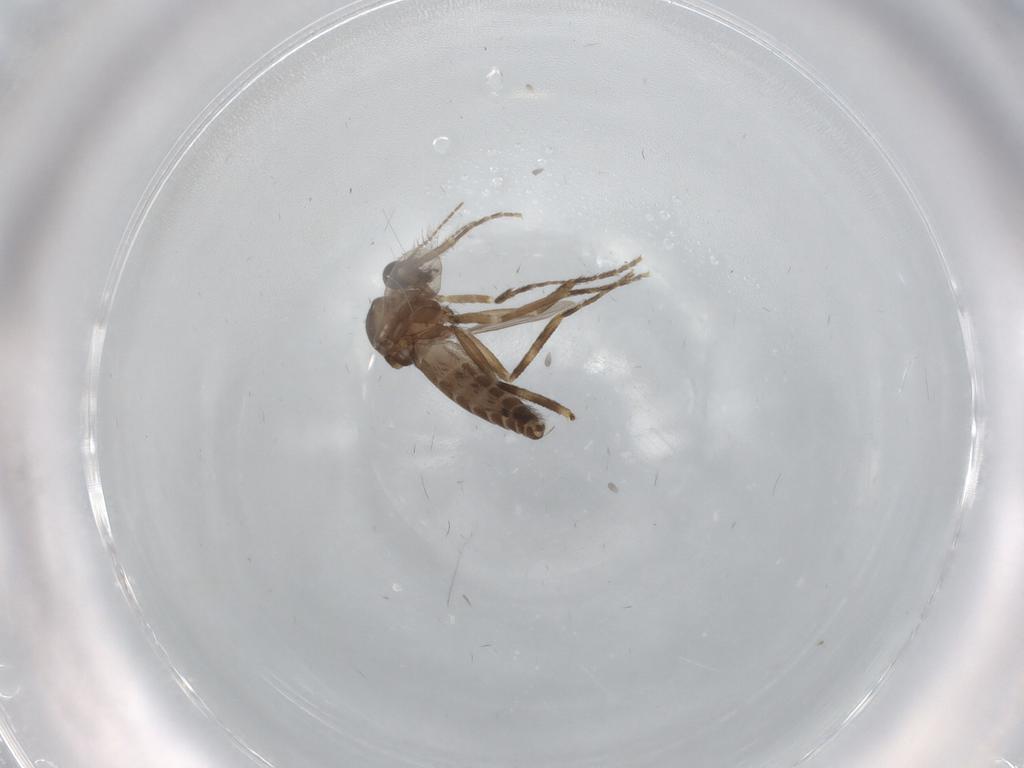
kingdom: Animalia
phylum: Arthropoda
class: Insecta
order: Diptera
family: Ceratopogonidae
